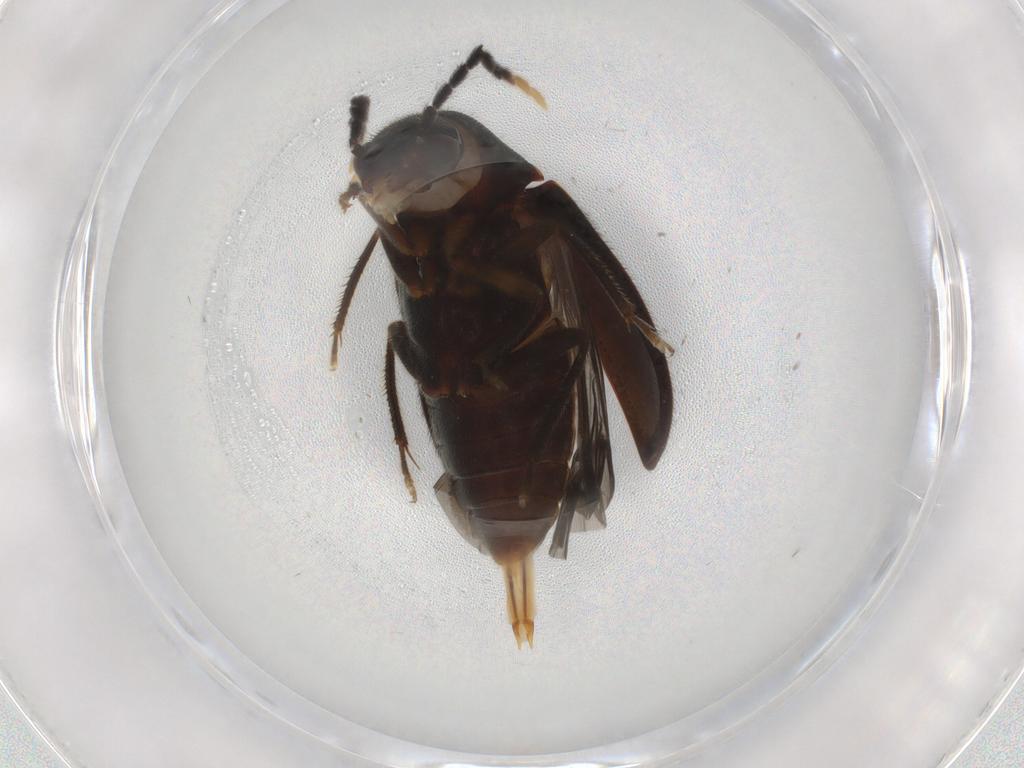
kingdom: Animalia
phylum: Arthropoda
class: Insecta
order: Coleoptera
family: Ptilodactylidae
